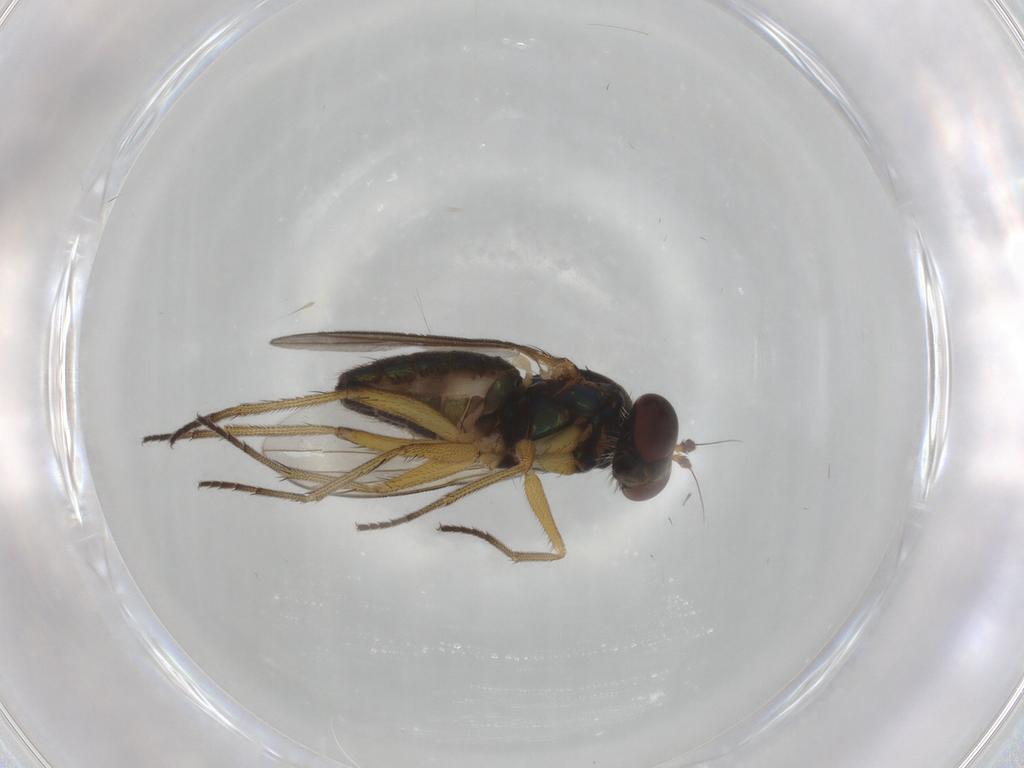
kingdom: Animalia
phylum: Arthropoda
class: Insecta
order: Diptera
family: Dolichopodidae
